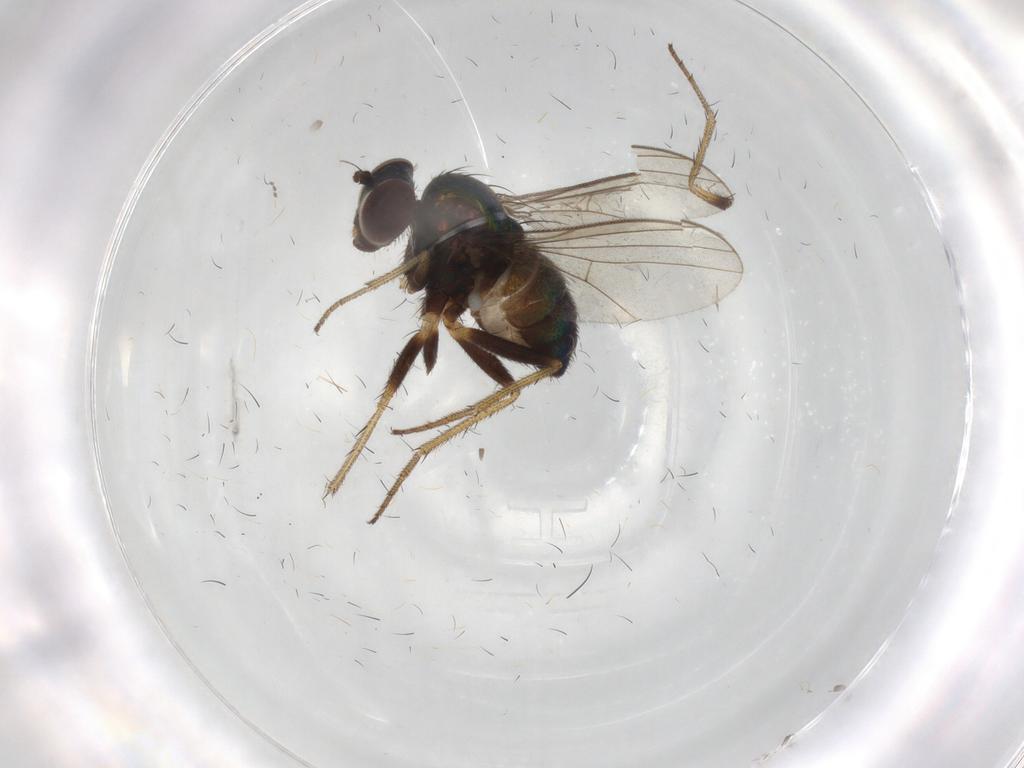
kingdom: Animalia
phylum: Arthropoda
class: Insecta
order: Diptera
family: Dolichopodidae
